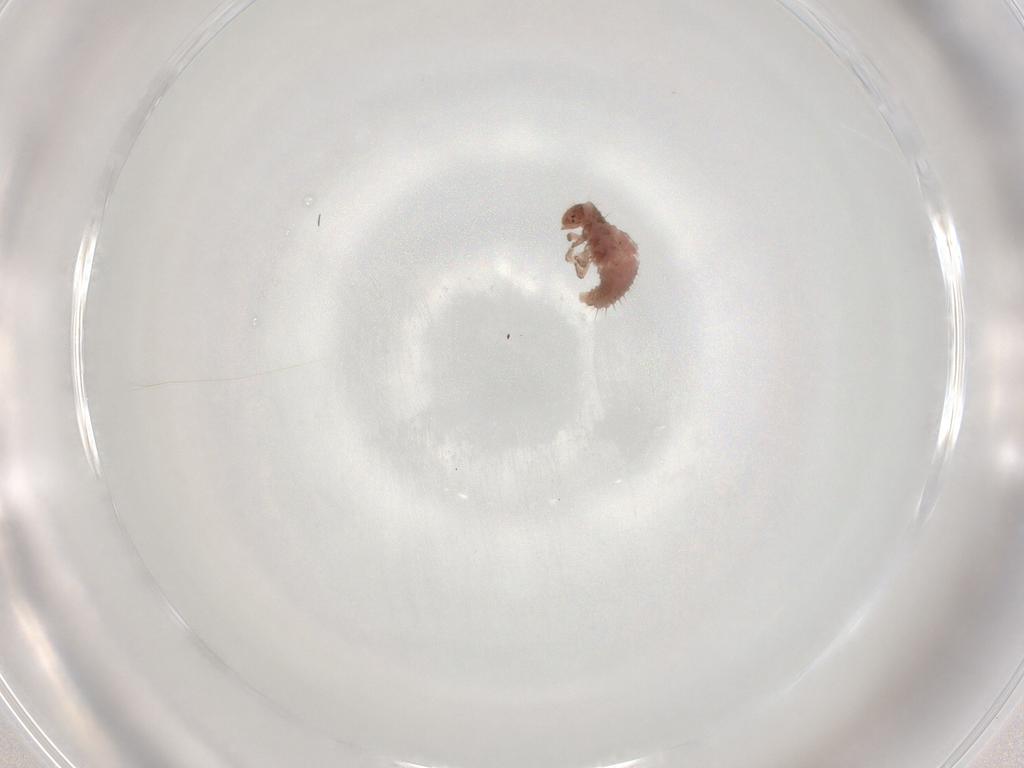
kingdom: Animalia
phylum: Arthropoda
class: Insecta
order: Coleoptera
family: Coccinellidae
